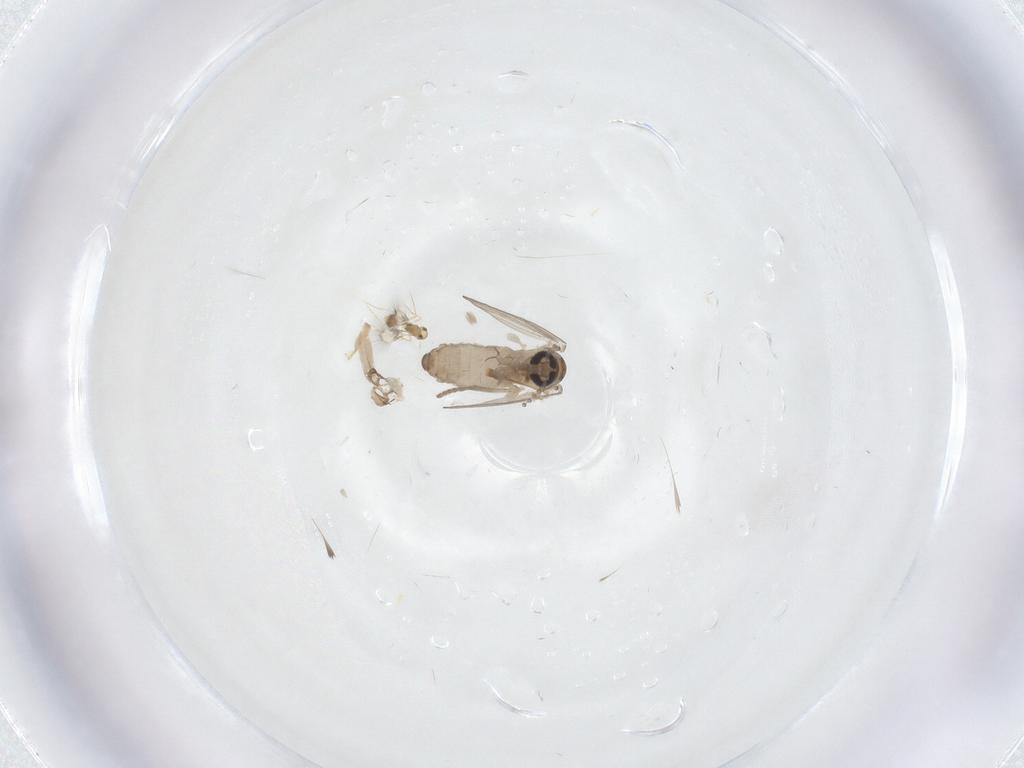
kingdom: Animalia
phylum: Arthropoda
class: Insecta
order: Diptera
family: Psychodidae
